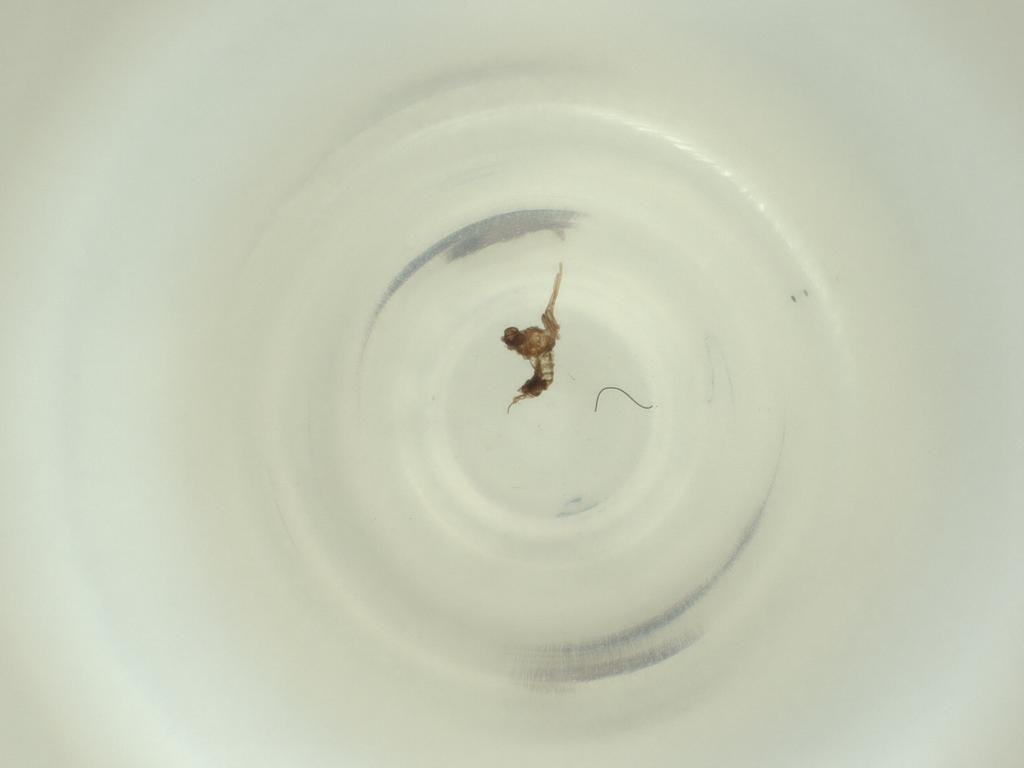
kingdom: Animalia
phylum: Arthropoda
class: Insecta
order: Diptera
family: Cecidomyiidae
